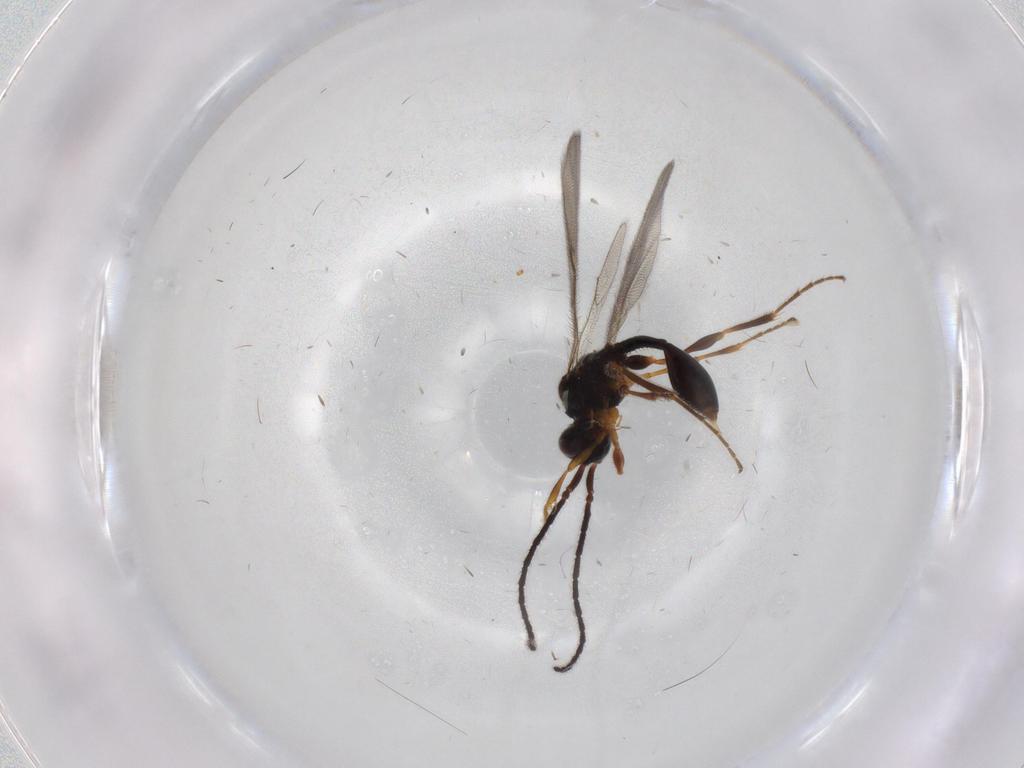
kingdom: Animalia
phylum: Arthropoda
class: Insecta
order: Hymenoptera
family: Diapriidae
